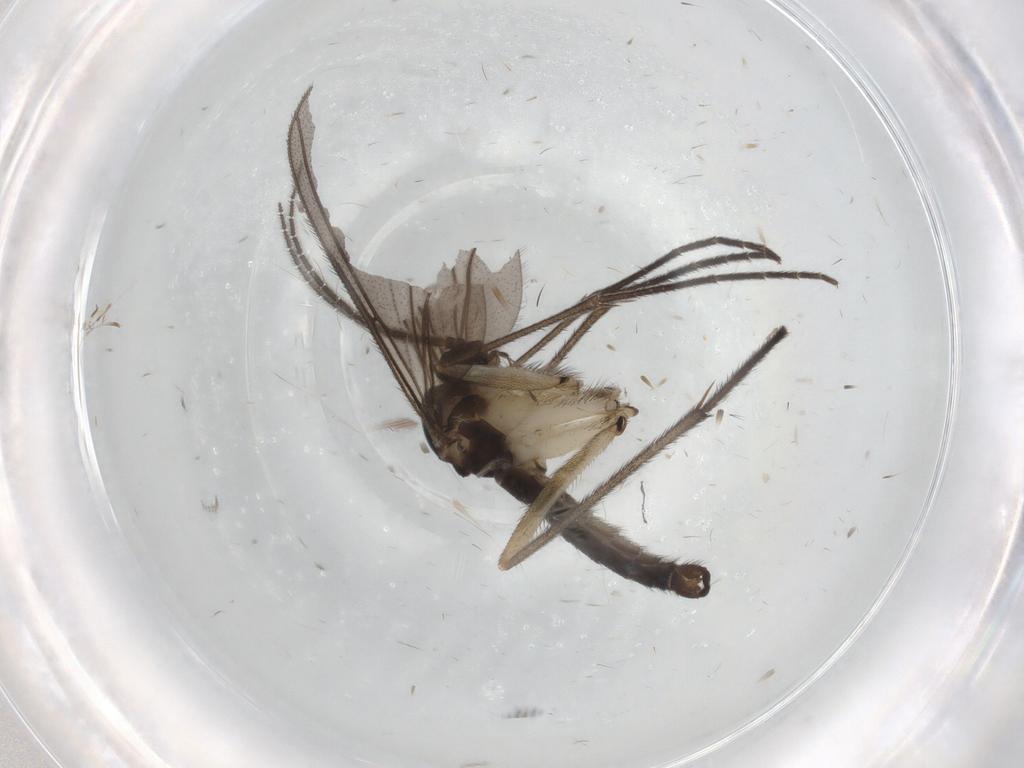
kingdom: Animalia
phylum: Arthropoda
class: Insecta
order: Diptera
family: Sciaridae
